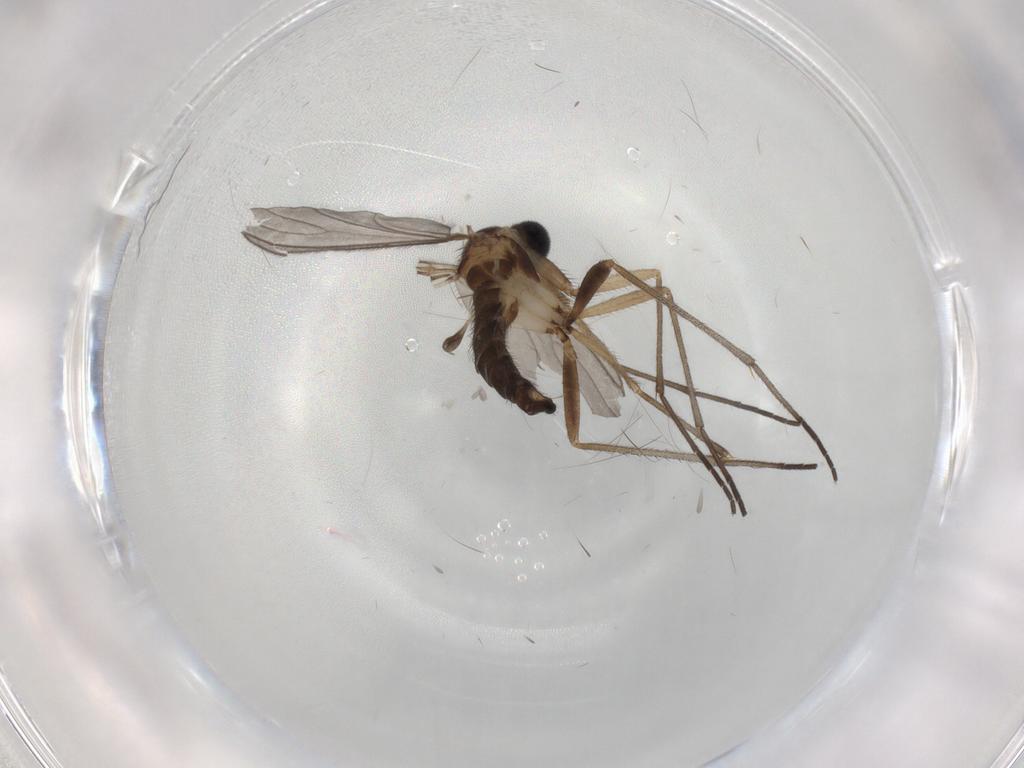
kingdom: Animalia
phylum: Arthropoda
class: Insecta
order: Diptera
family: Sciaridae
